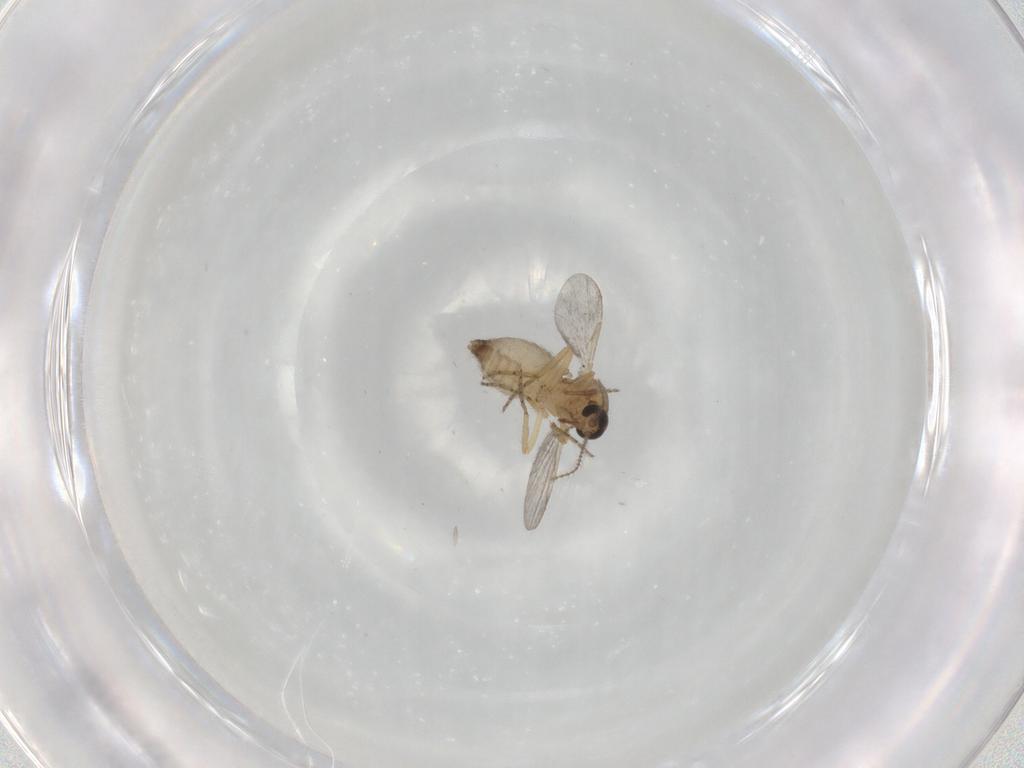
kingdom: Animalia
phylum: Arthropoda
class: Insecta
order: Diptera
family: Ceratopogonidae
